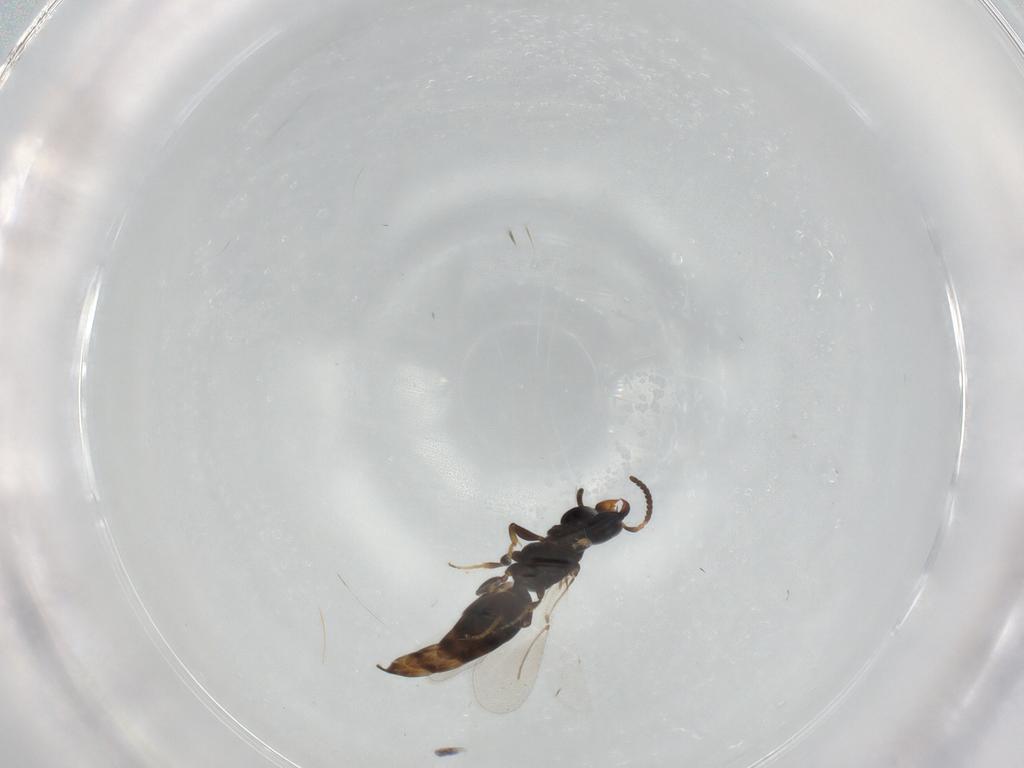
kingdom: Animalia
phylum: Arthropoda
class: Insecta
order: Hymenoptera
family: Bethylidae
